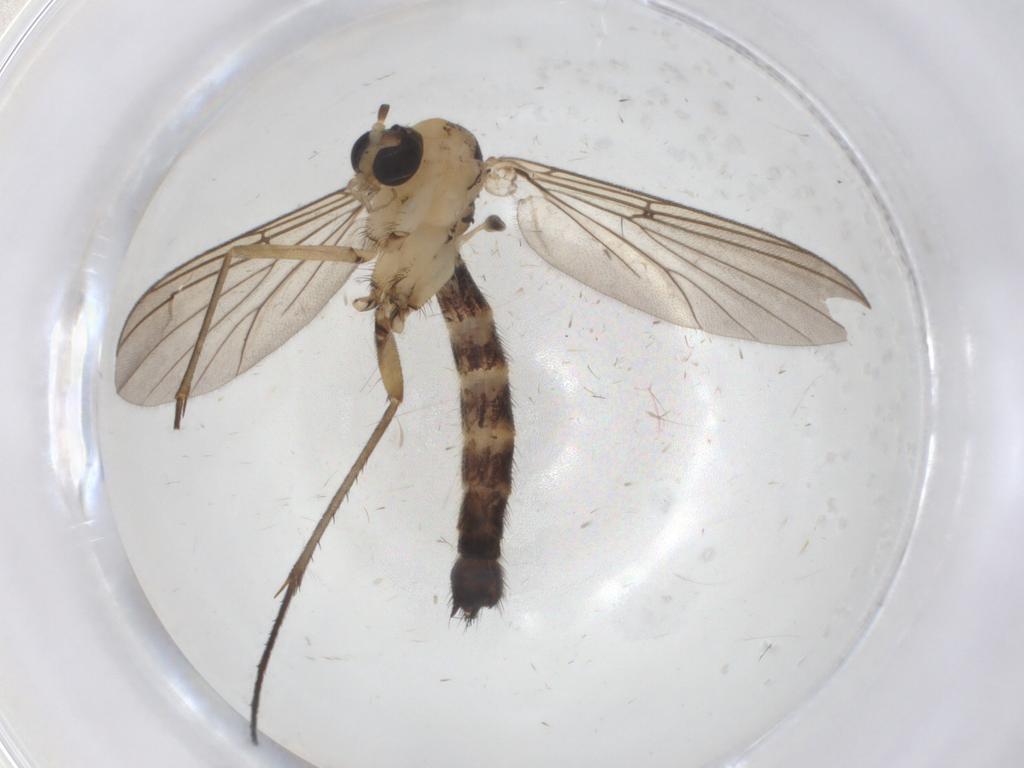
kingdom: Animalia
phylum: Arthropoda
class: Insecta
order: Diptera
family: Mycetophilidae
